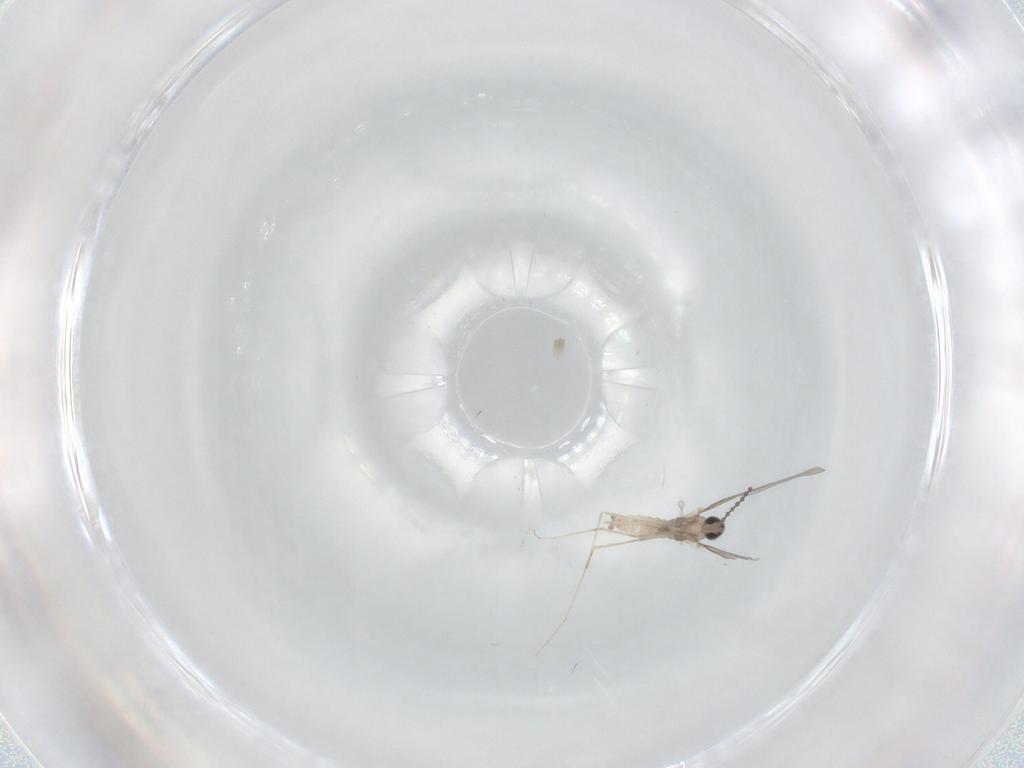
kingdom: Animalia
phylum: Arthropoda
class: Insecta
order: Diptera
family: Cecidomyiidae
